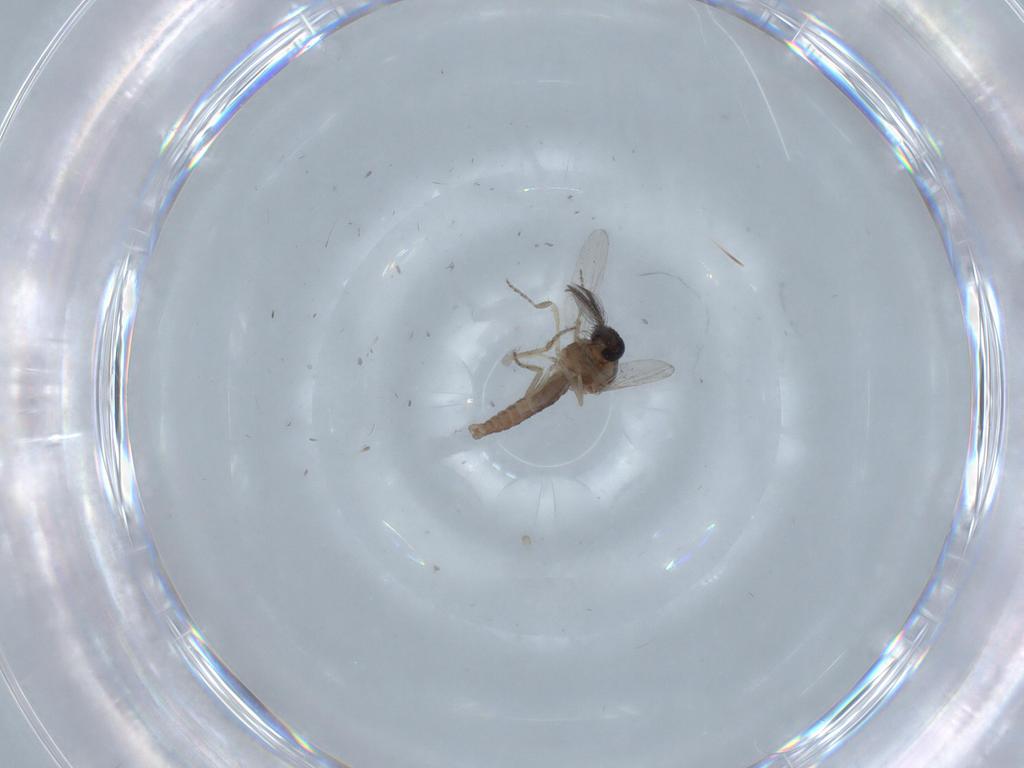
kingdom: Animalia
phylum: Arthropoda
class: Insecta
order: Diptera
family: Ceratopogonidae
